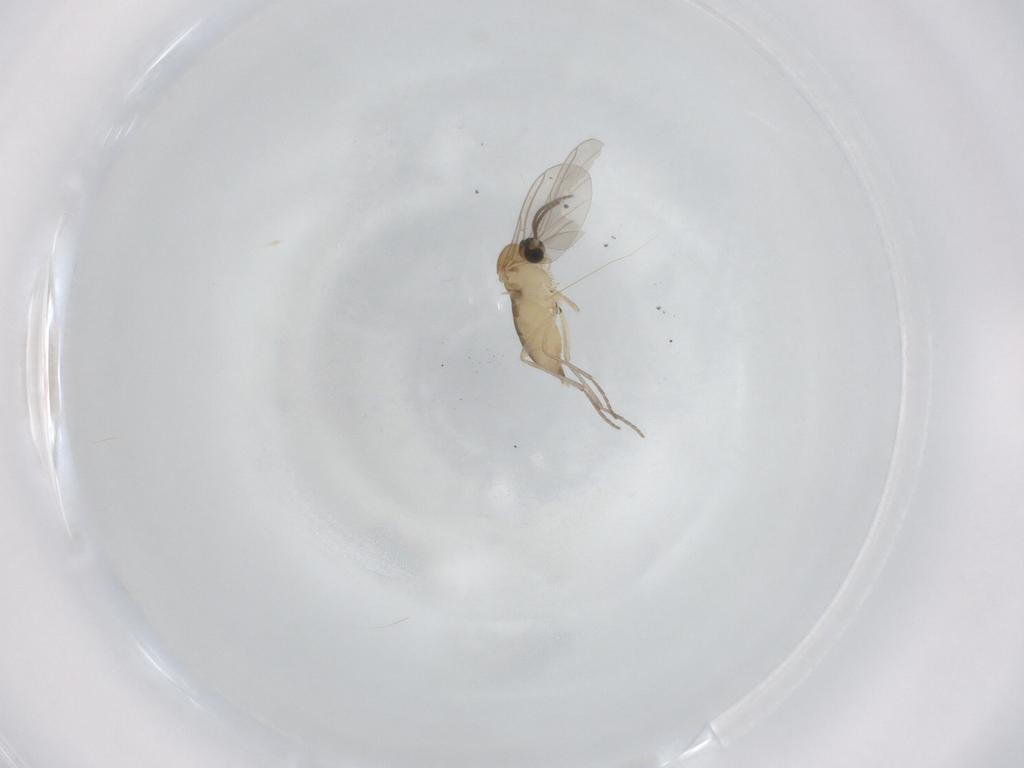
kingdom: Animalia
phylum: Arthropoda
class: Insecta
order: Diptera
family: Sciaridae
